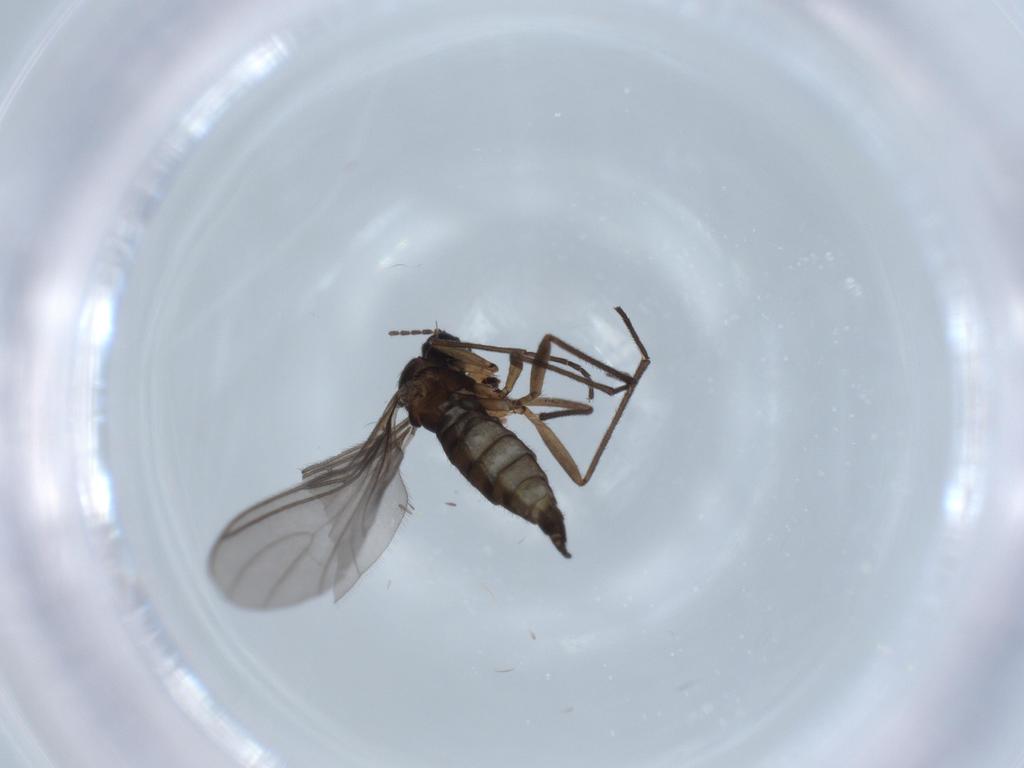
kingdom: Animalia
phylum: Arthropoda
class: Insecta
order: Diptera
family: Sciaridae
